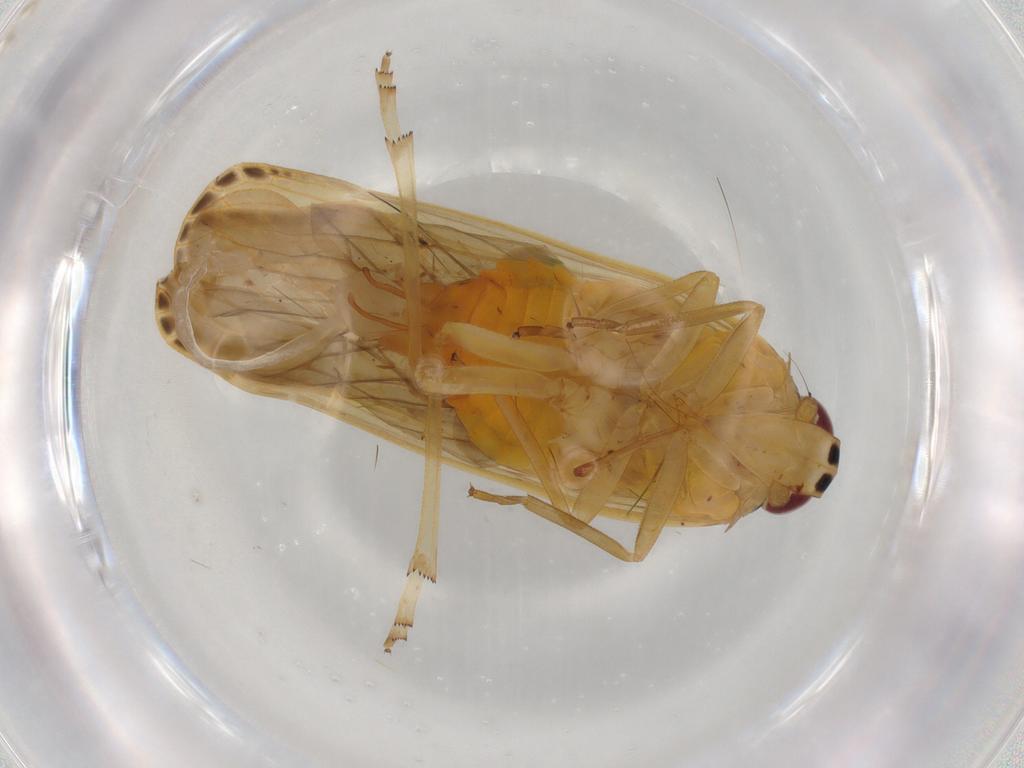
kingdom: Animalia
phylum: Arthropoda
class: Insecta
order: Hemiptera
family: Achilidae
